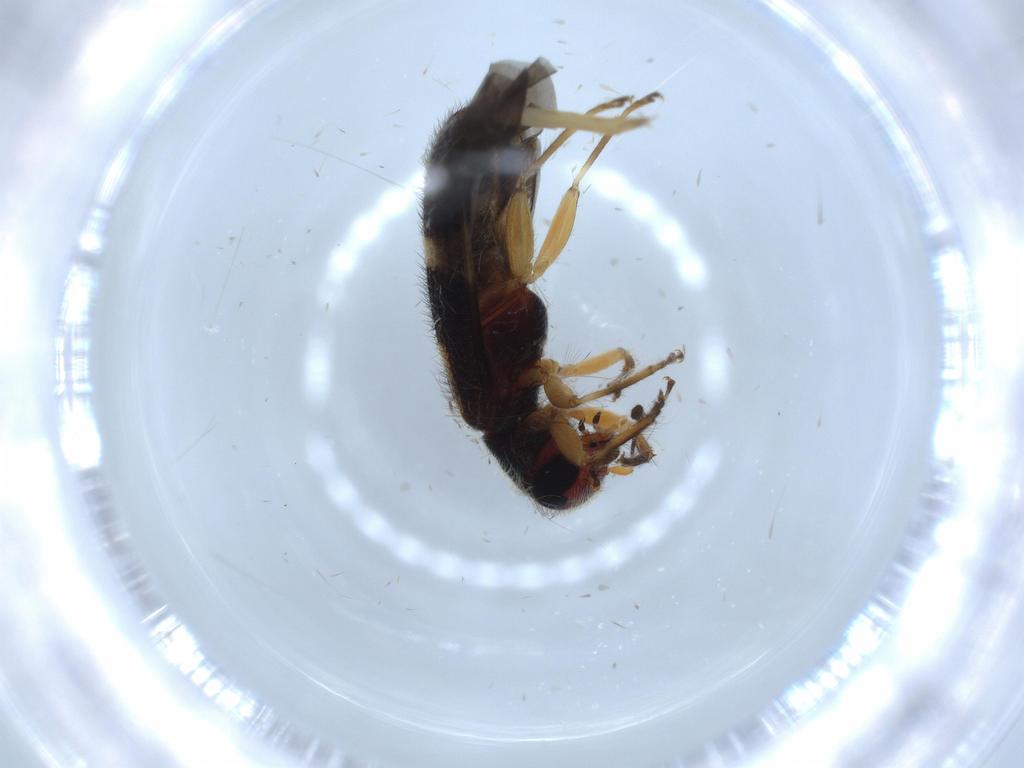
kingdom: Animalia
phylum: Arthropoda
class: Insecta
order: Coleoptera
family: Cleridae
